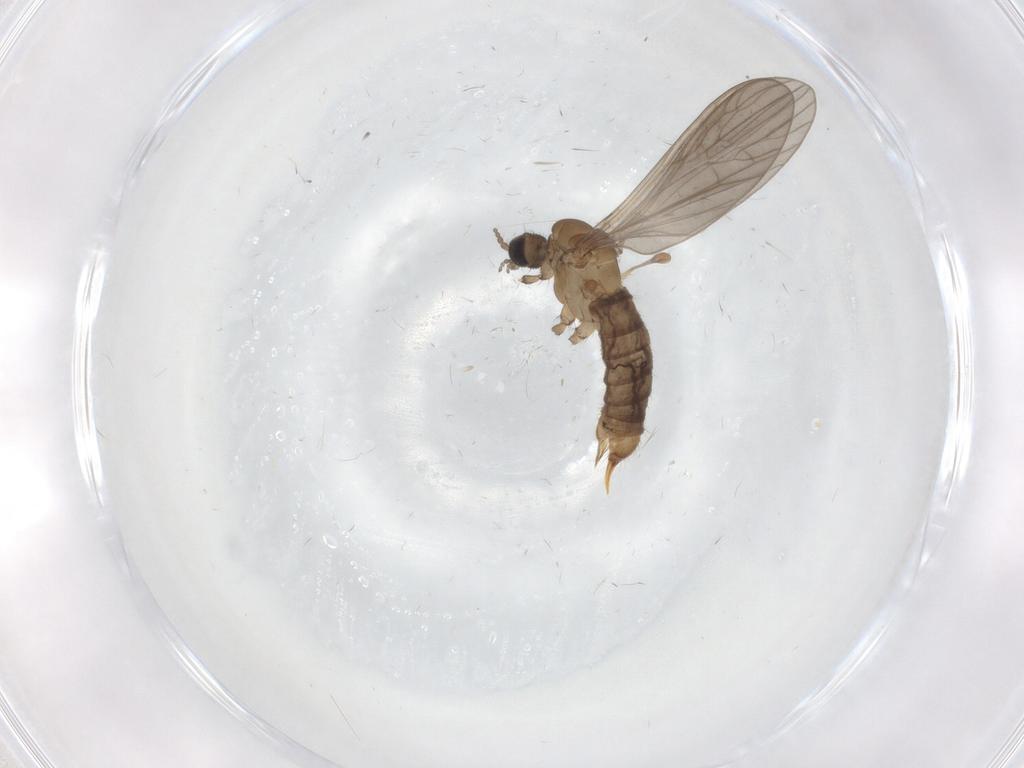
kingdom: Animalia
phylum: Arthropoda
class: Insecta
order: Diptera
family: Limoniidae
